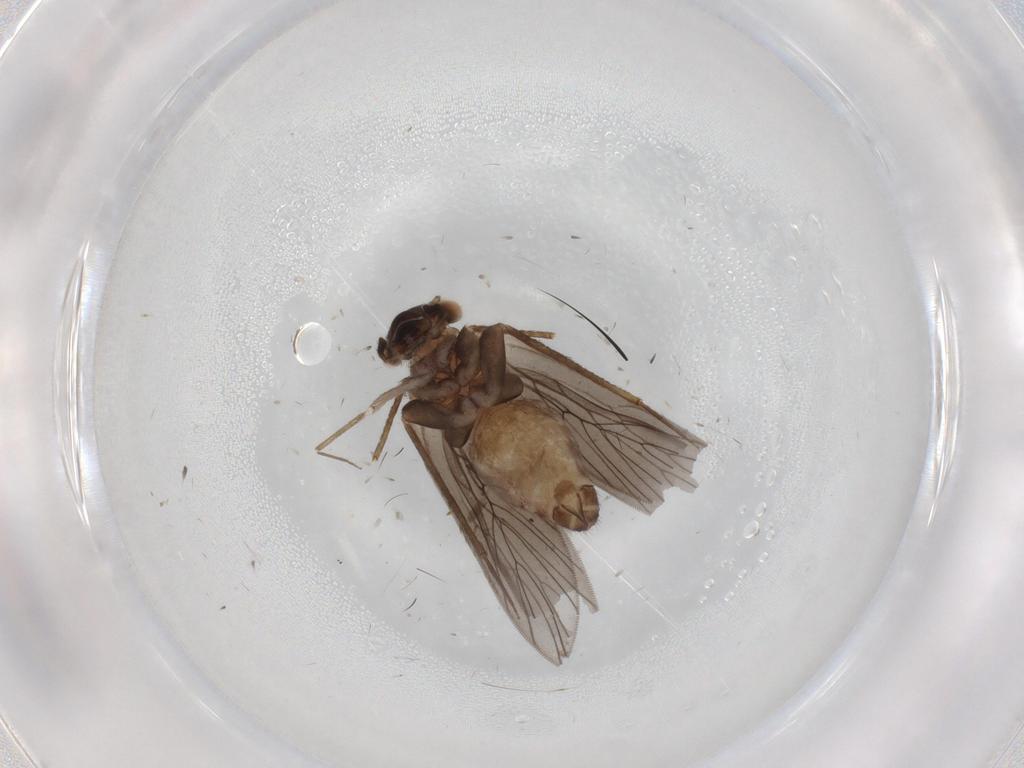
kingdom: Animalia
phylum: Arthropoda
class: Insecta
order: Psocodea
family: Lepidopsocidae
